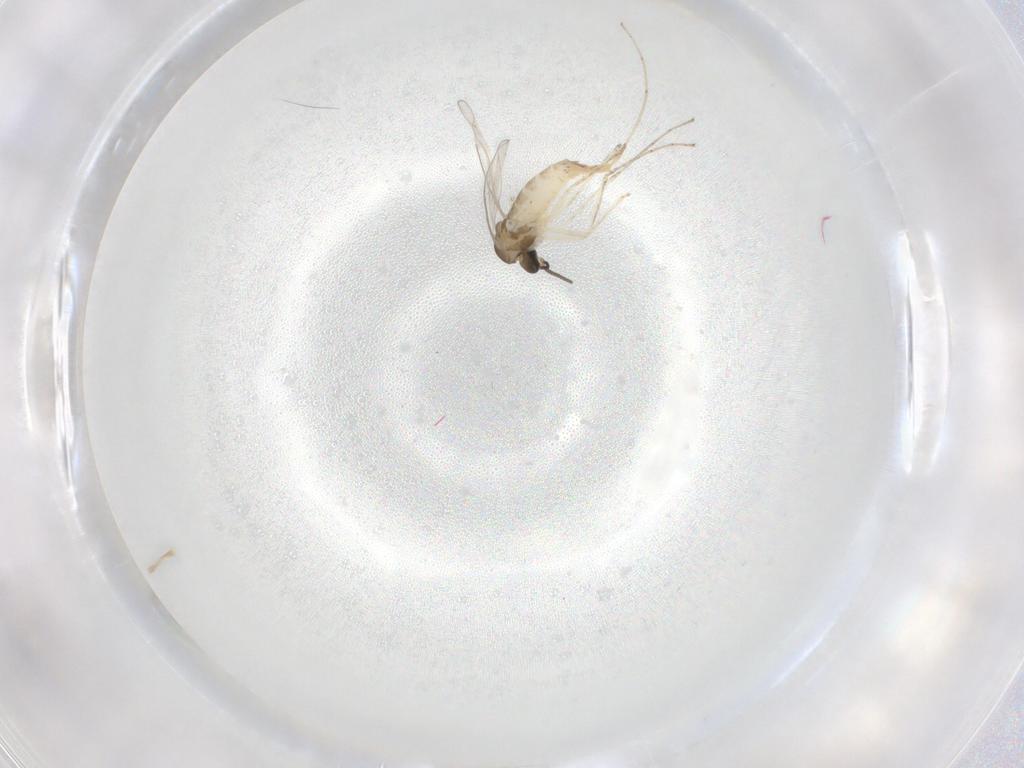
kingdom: Animalia
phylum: Arthropoda
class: Insecta
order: Diptera
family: Cecidomyiidae
